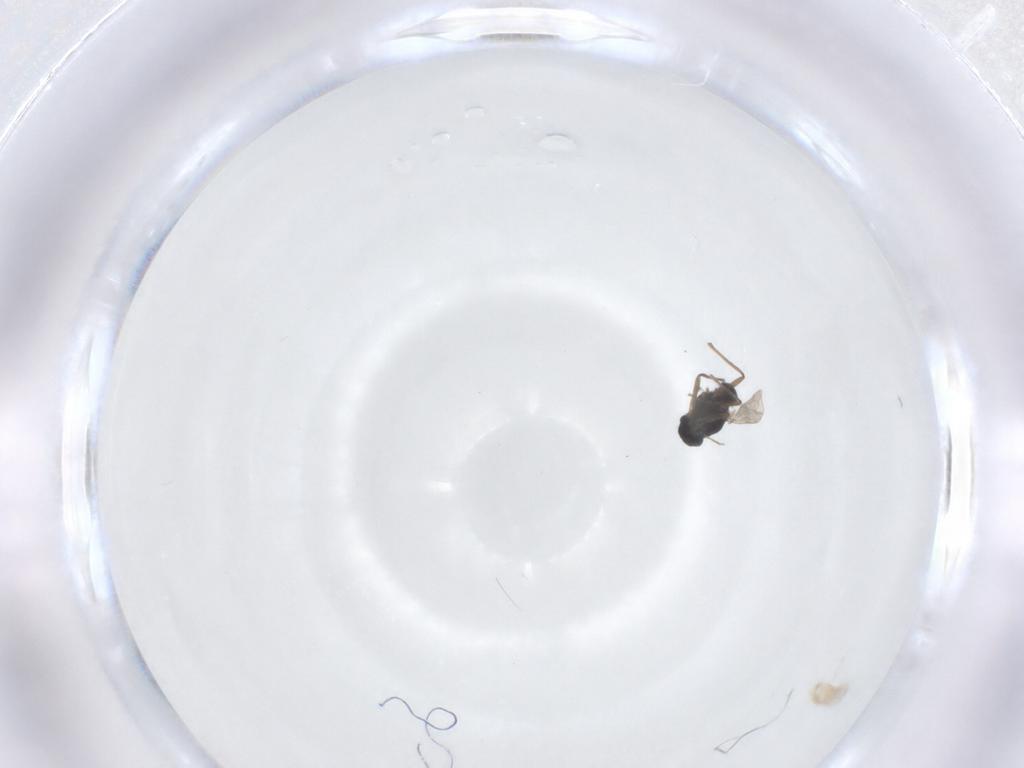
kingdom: Animalia
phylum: Arthropoda
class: Insecta
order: Diptera
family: Chironomidae
